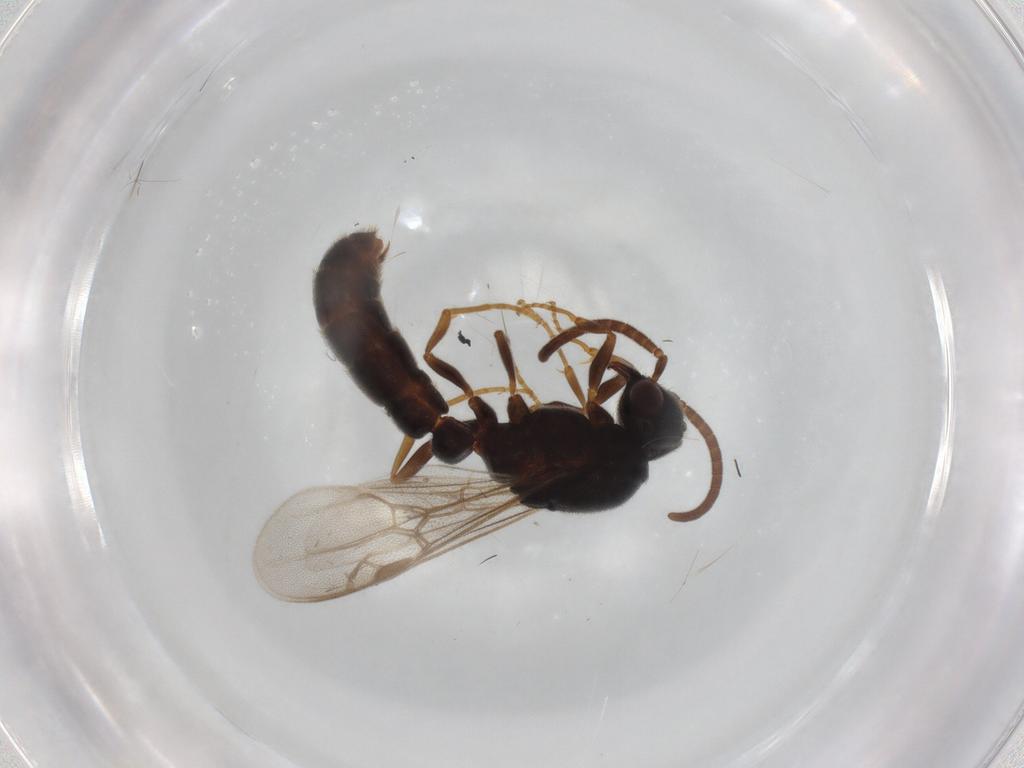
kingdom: Animalia
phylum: Arthropoda
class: Insecta
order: Hymenoptera
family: Formicidae
